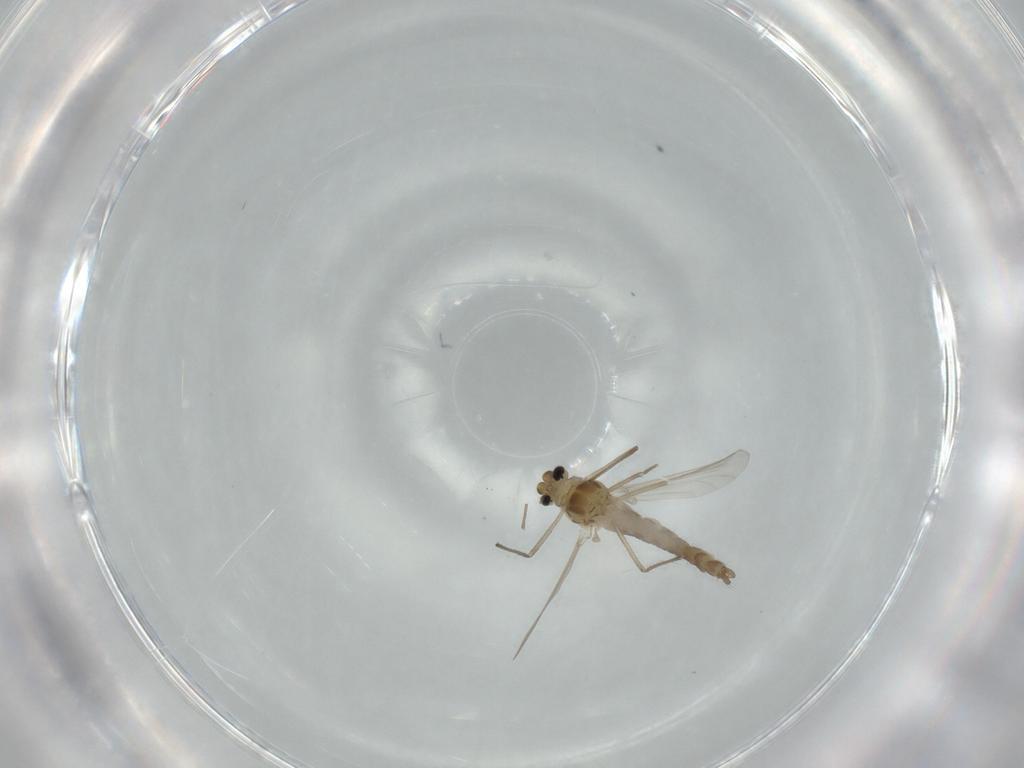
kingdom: Animalia
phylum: Arthropoda
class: Insecta
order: Diptera
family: Chironomidae
